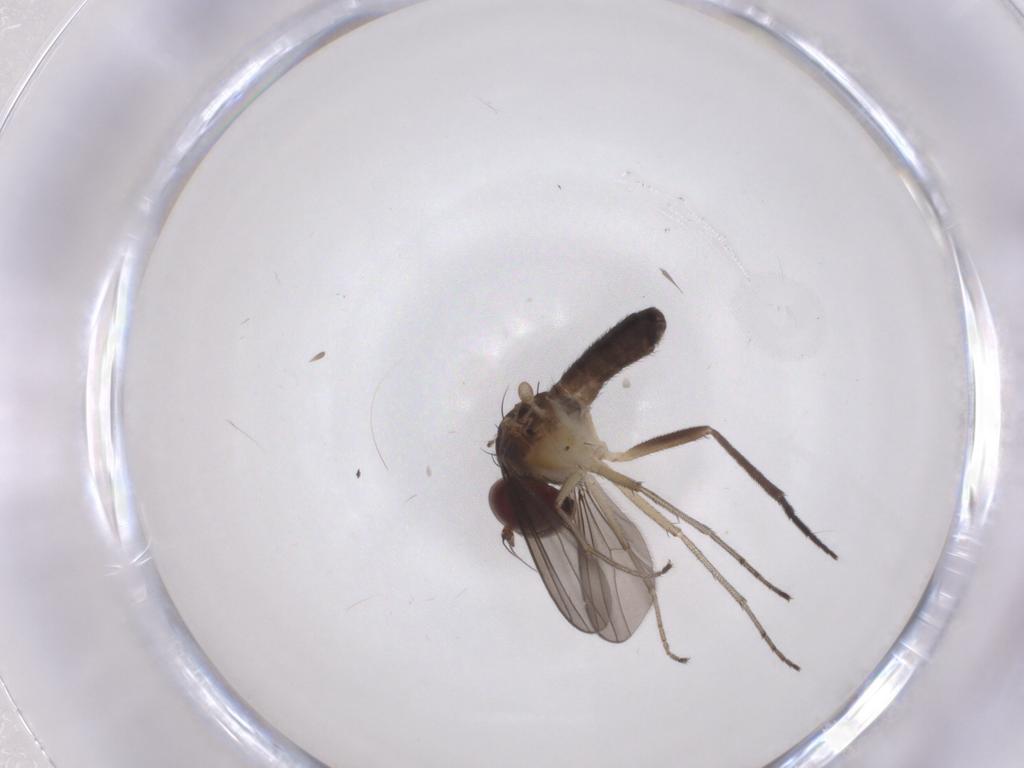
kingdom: Animalia
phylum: Arthropoda
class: Insecta
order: Diptera
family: Dolichopodidae
